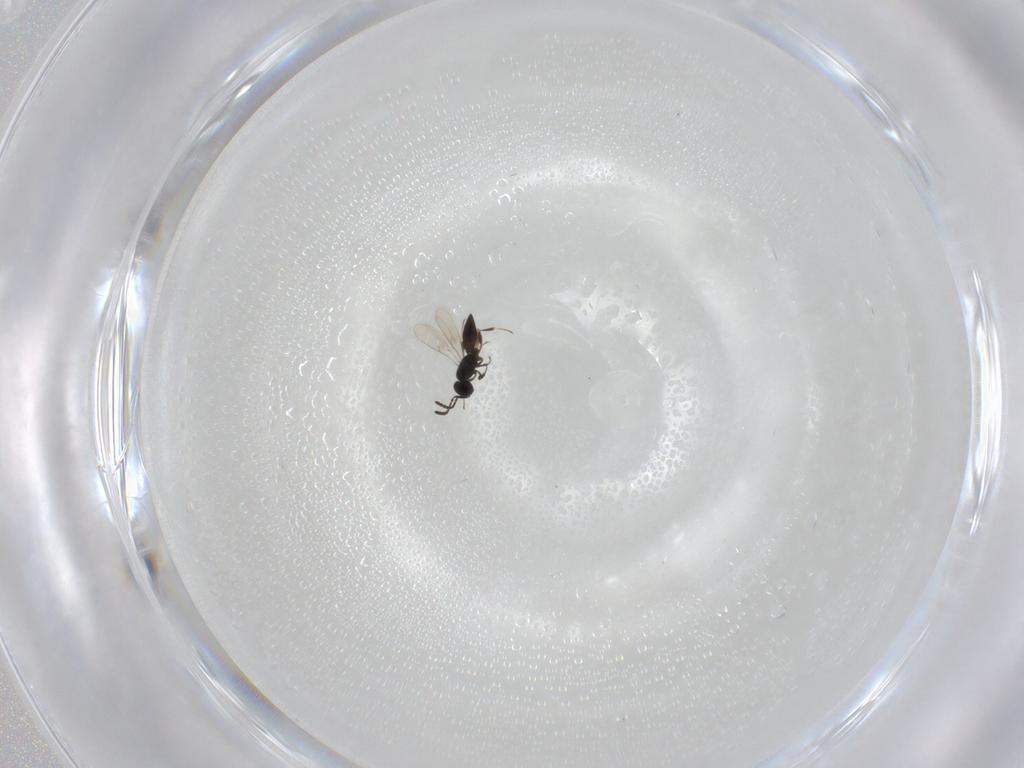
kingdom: Animalia
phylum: Arthropoda
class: Insecta
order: Hymenoptera
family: Scelionidae
